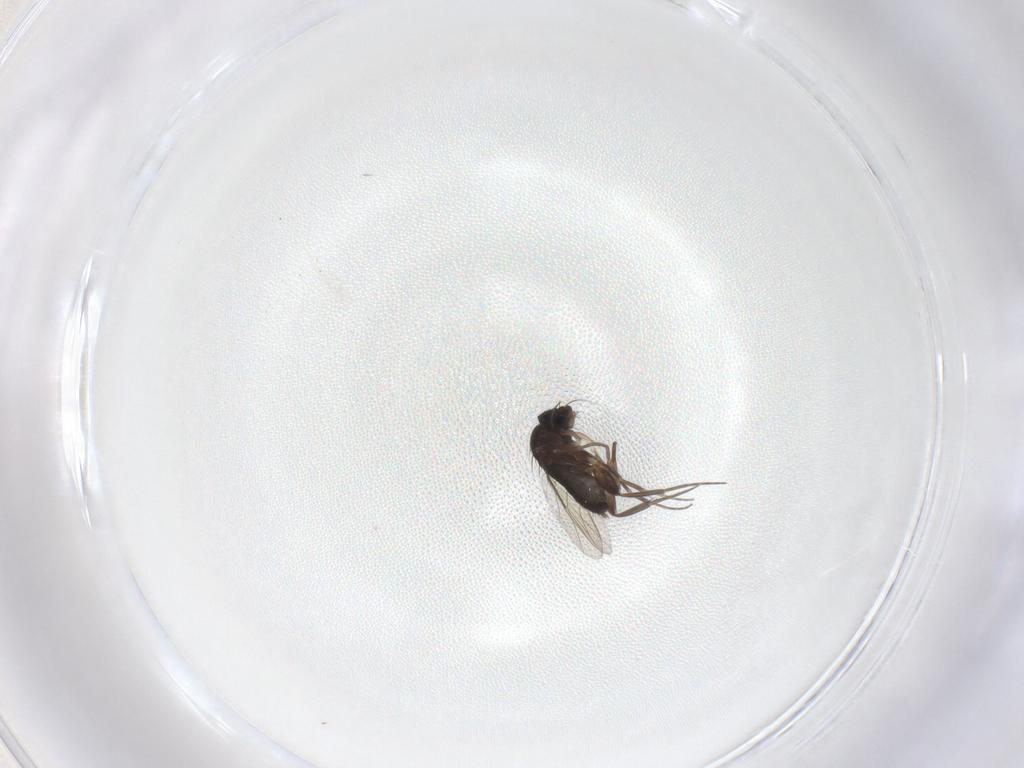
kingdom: Animalia
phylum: Arthropoda
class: Insecta
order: Diptera
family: Phoridae
